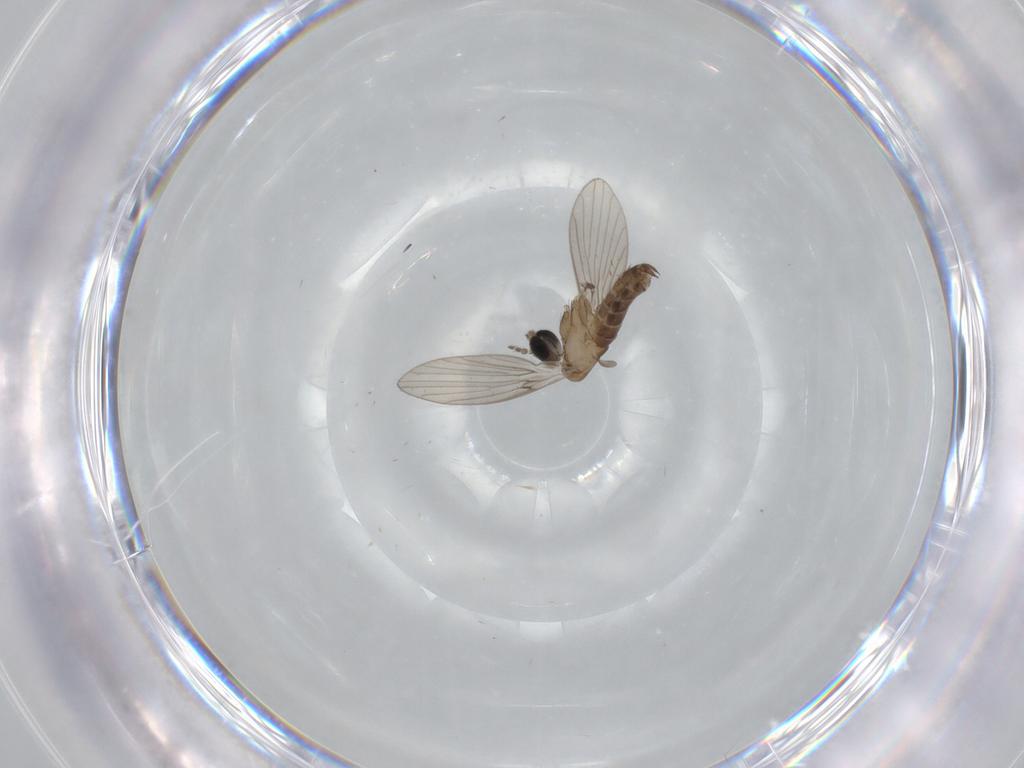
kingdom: Animalia
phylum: Arthropoda
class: Insecta
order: Diptera
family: Psychodidae
